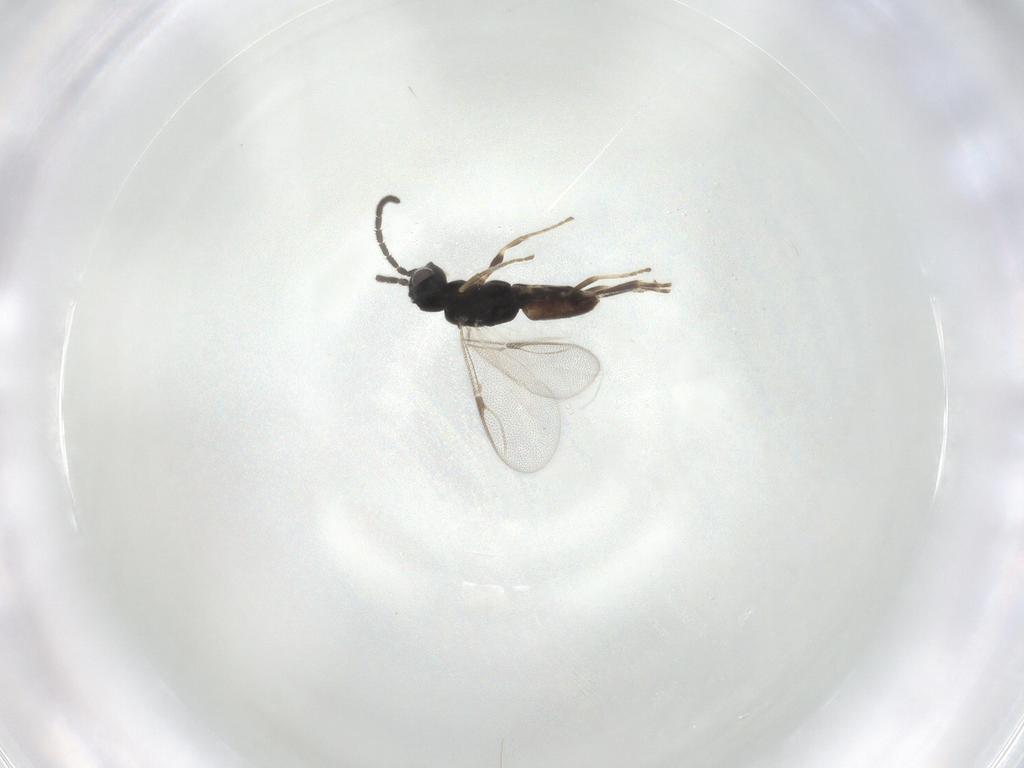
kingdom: Animalia
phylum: Arthropoda
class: Insecta
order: Hymenoptera
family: Dryinidae
